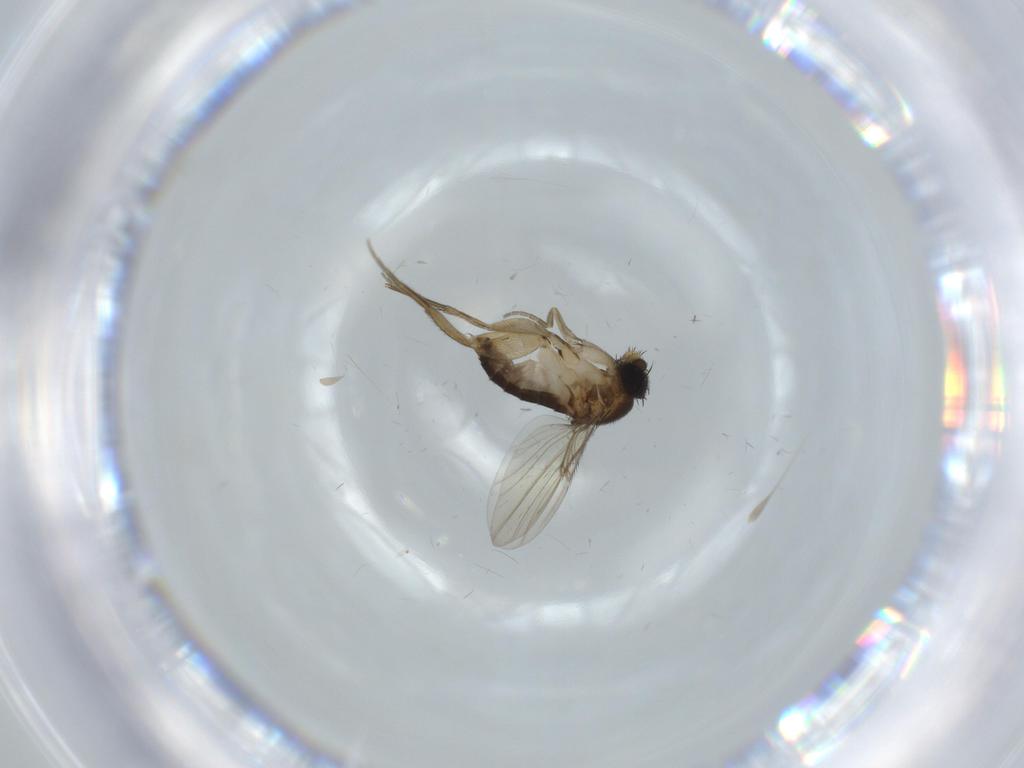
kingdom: Animalia
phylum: Arthropoda
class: Insecta
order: Diptera
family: Phoridae
